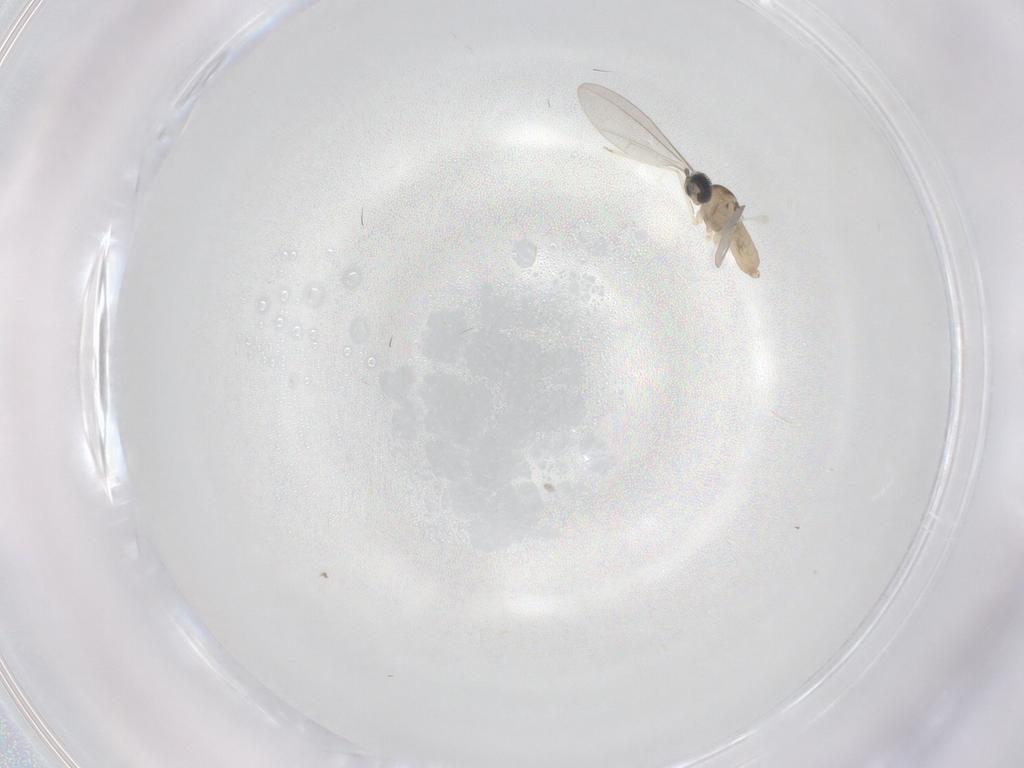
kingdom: Animalia
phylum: Arthropoda
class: Insecta
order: Diptera
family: Cecidomyiidae
